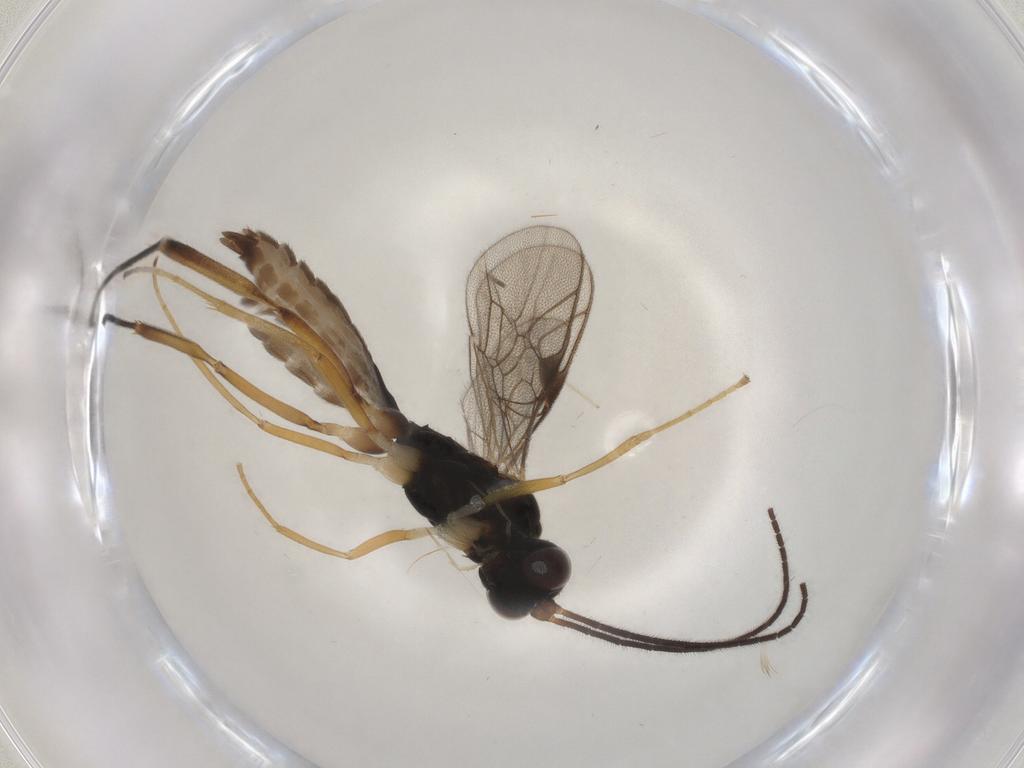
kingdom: Animalia
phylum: Arthropoda
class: Insecta
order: Hymenoptera
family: Ichneumonidae
